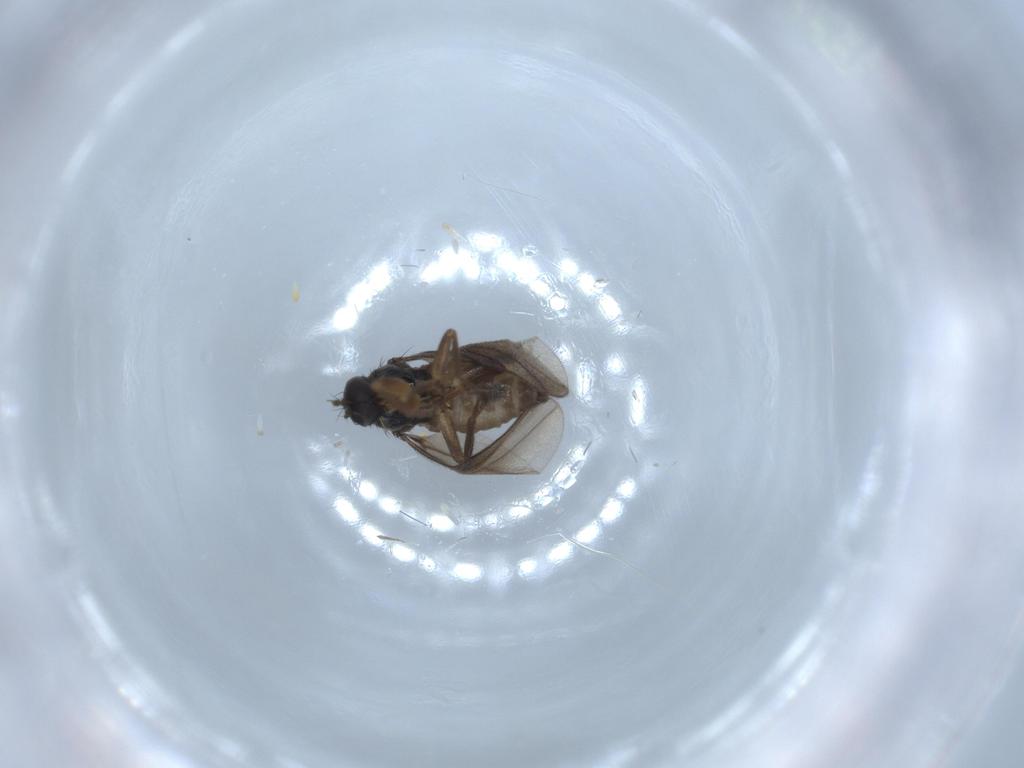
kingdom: Animalia
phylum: Arthropoda
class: Insecta
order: Diptera
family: Hybotidae
